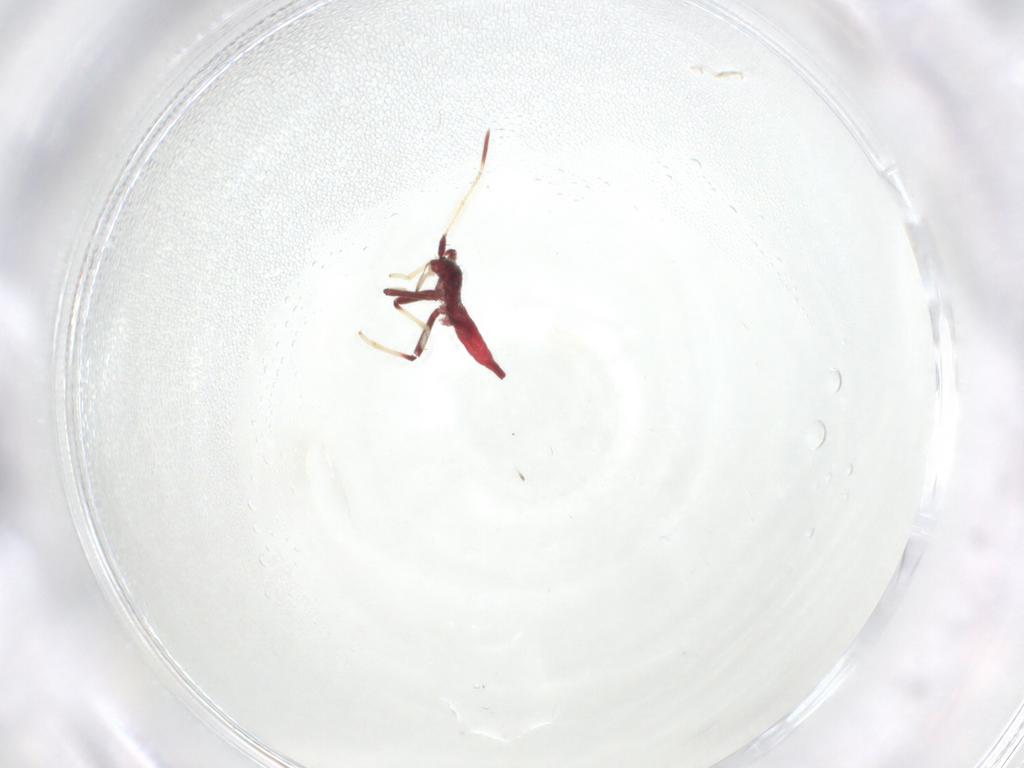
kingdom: Animalia
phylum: Arthropoda
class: Insecta
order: Hemiptera
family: Miridae
